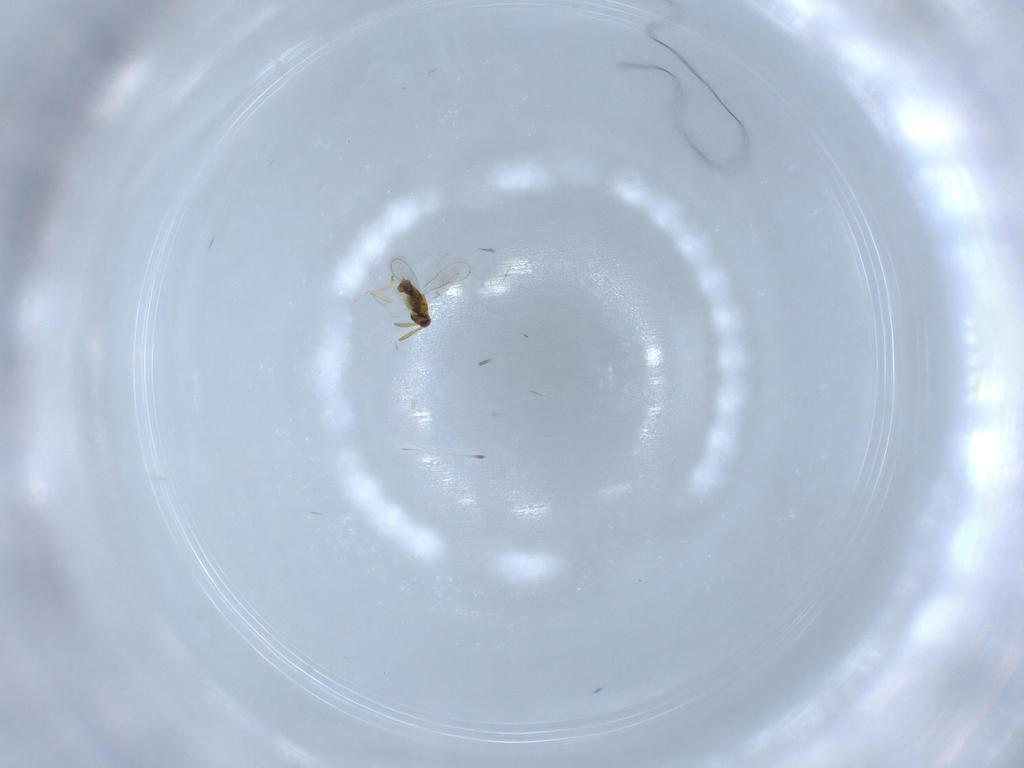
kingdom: Animalia
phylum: Arthropoda
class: Insecta
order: Hymenoptera
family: Aphelinidae
